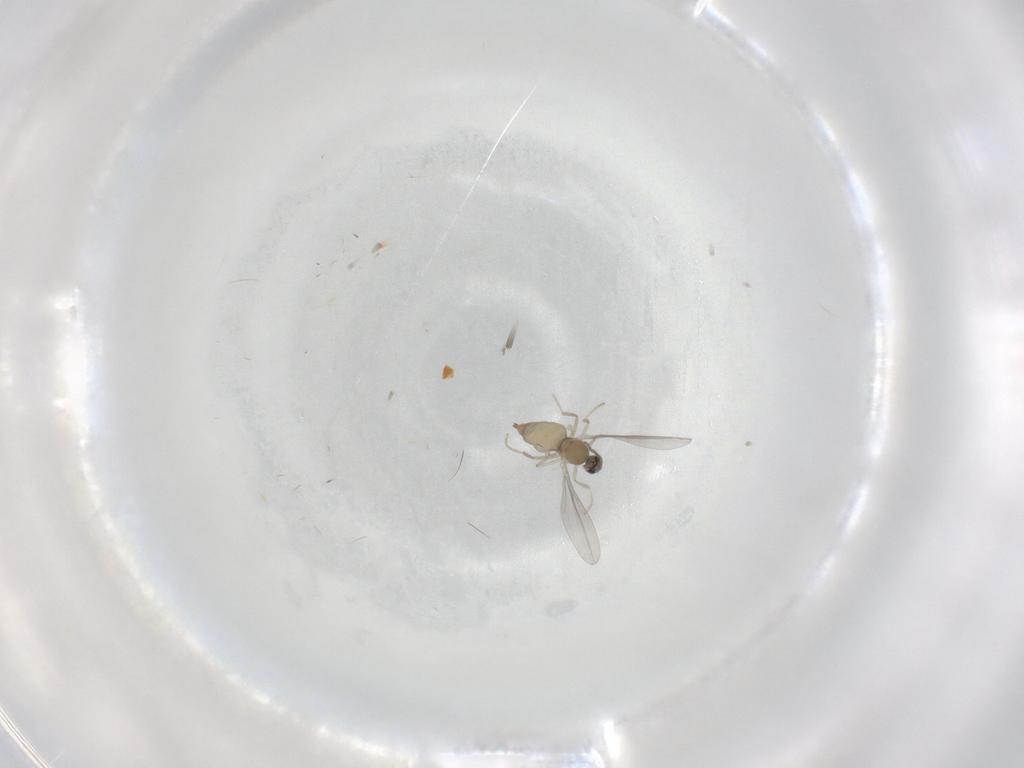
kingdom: Animalia
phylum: Arthropoda
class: Insecta
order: Diptera
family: Cecidomyiidae
